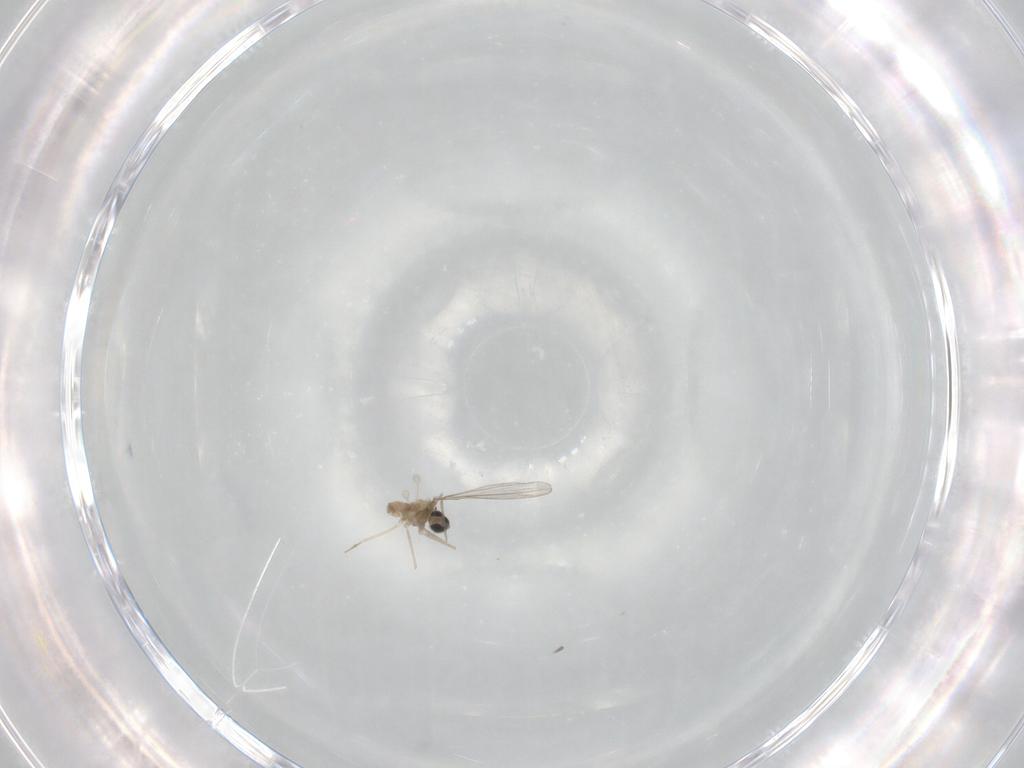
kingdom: Animalia
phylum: Arthropoda
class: Insecta
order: Diptera
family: Cecidomyiidae
